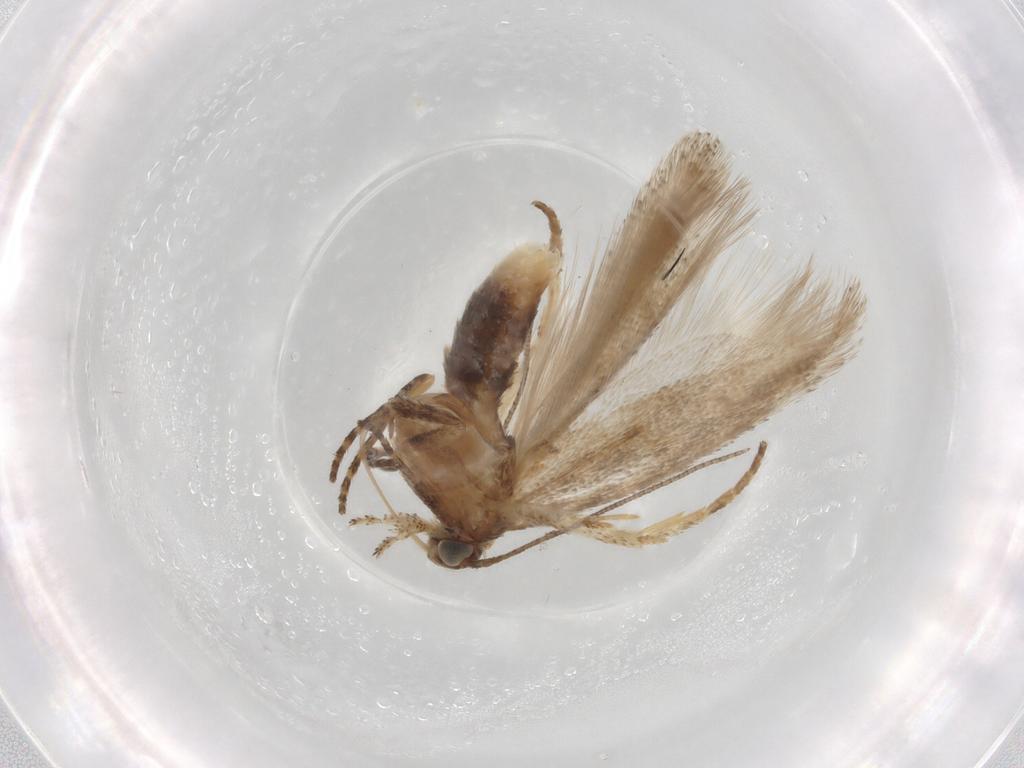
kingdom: Animalia
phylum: Arthropoda
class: Insecta
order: Lepidoptera
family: Gelechiidae
